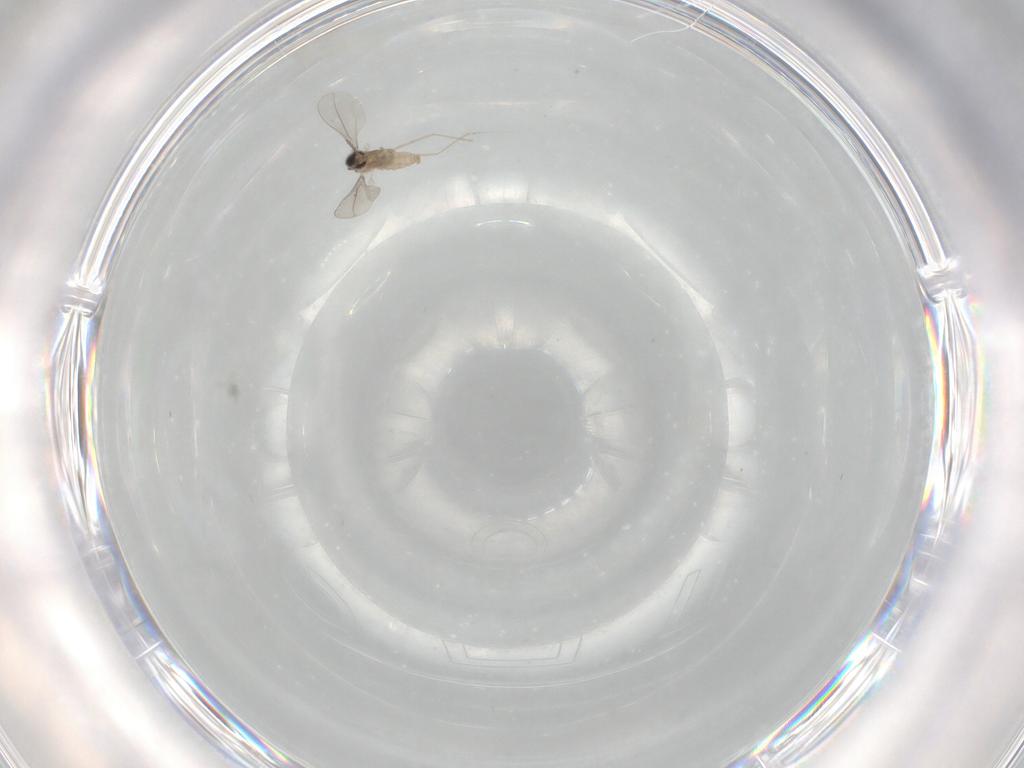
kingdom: Animalia
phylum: Arthropoda
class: Insecta
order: Diptera
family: Cecidomyiidae
